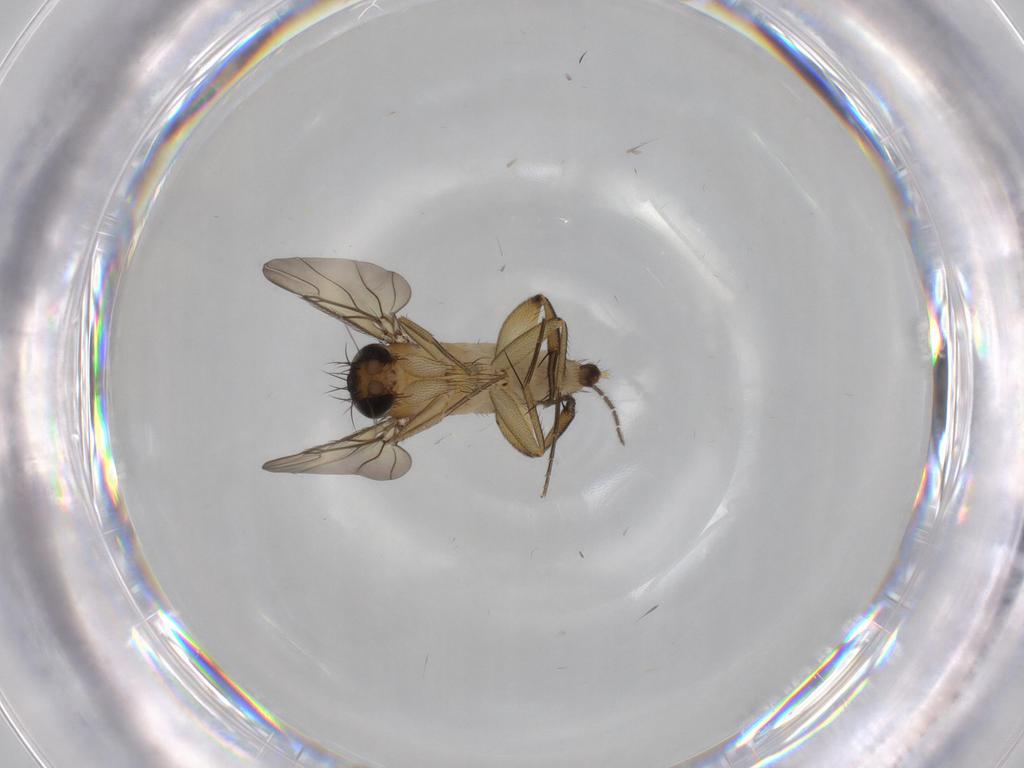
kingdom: Animalia
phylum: Arthropoda
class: Insecta
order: Diptera
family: Phoridae
